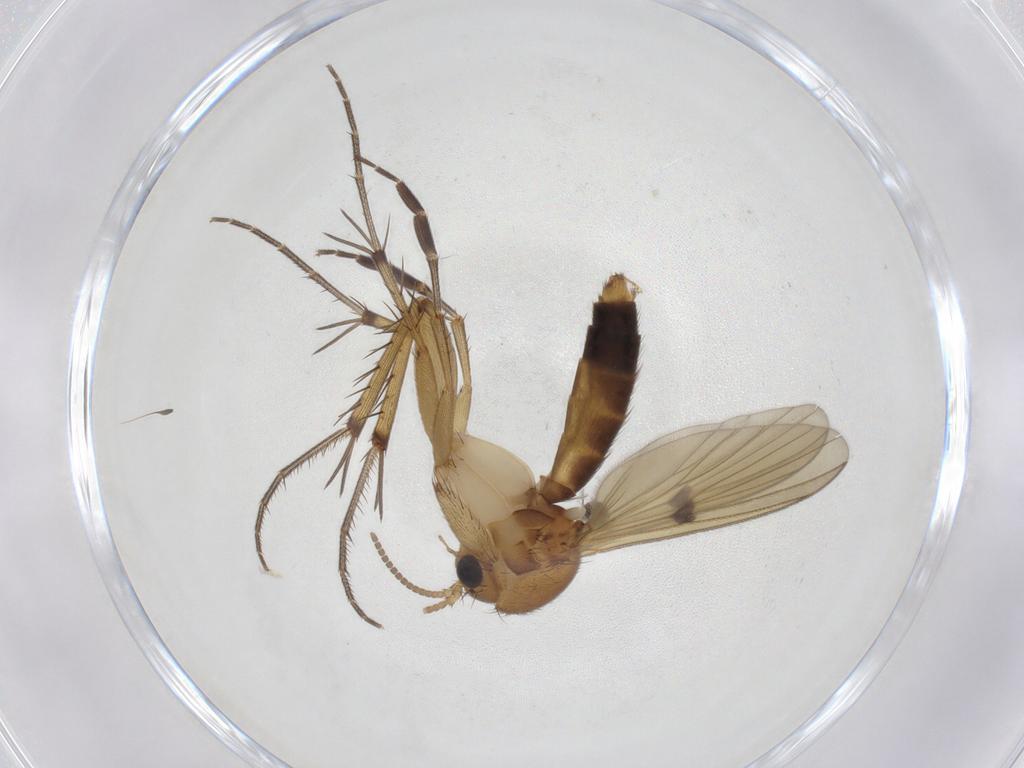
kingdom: Animalia
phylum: Arthropoda
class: Insecta
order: Diptera
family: Mycetophilidae
